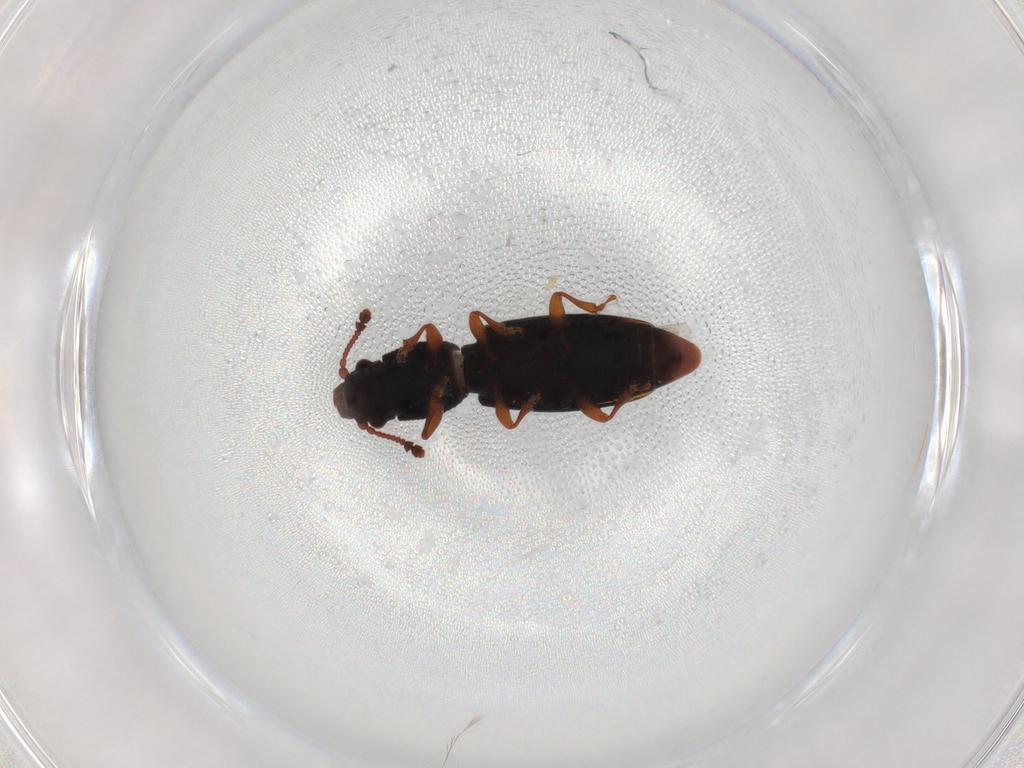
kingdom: Animalia
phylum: Arthropoda
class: Insecta
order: Coleoptera
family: Monotomidae
